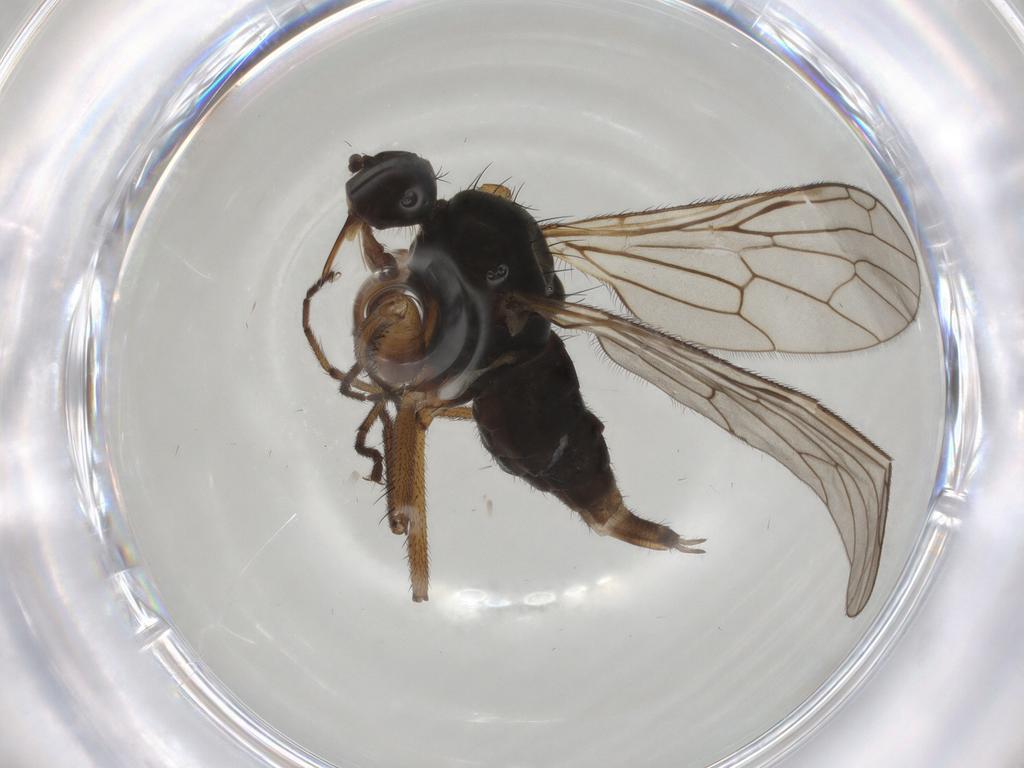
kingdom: Animalia
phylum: Arthropoda
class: Insecta
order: Diptera
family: Empididae
